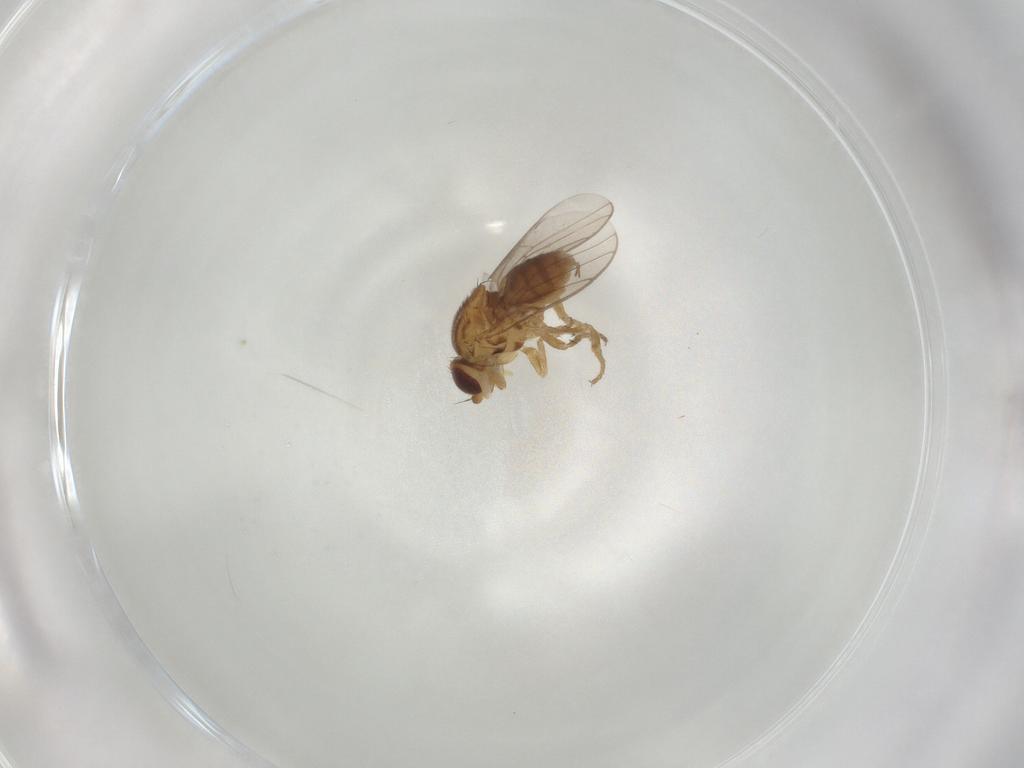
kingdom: Animalia
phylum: Arthropoda
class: Insecta
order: Diptera
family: Chloropidae
